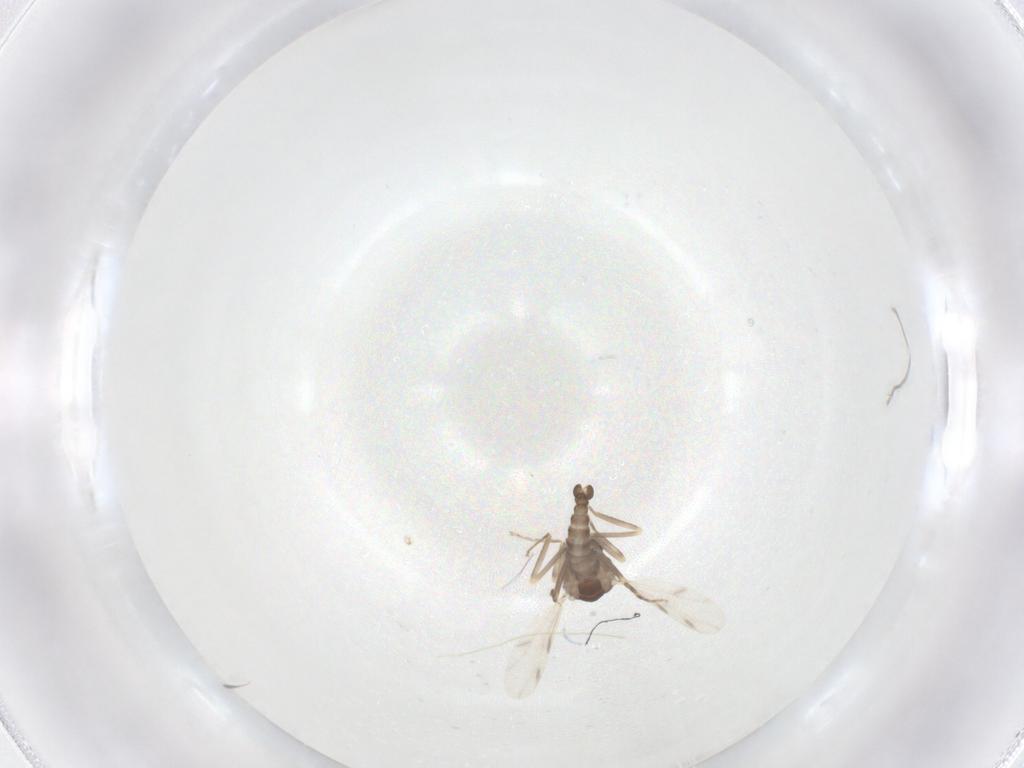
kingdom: Animalia
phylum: Arthropoda
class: Insecta
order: Diptera
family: Ceratopogonidae
